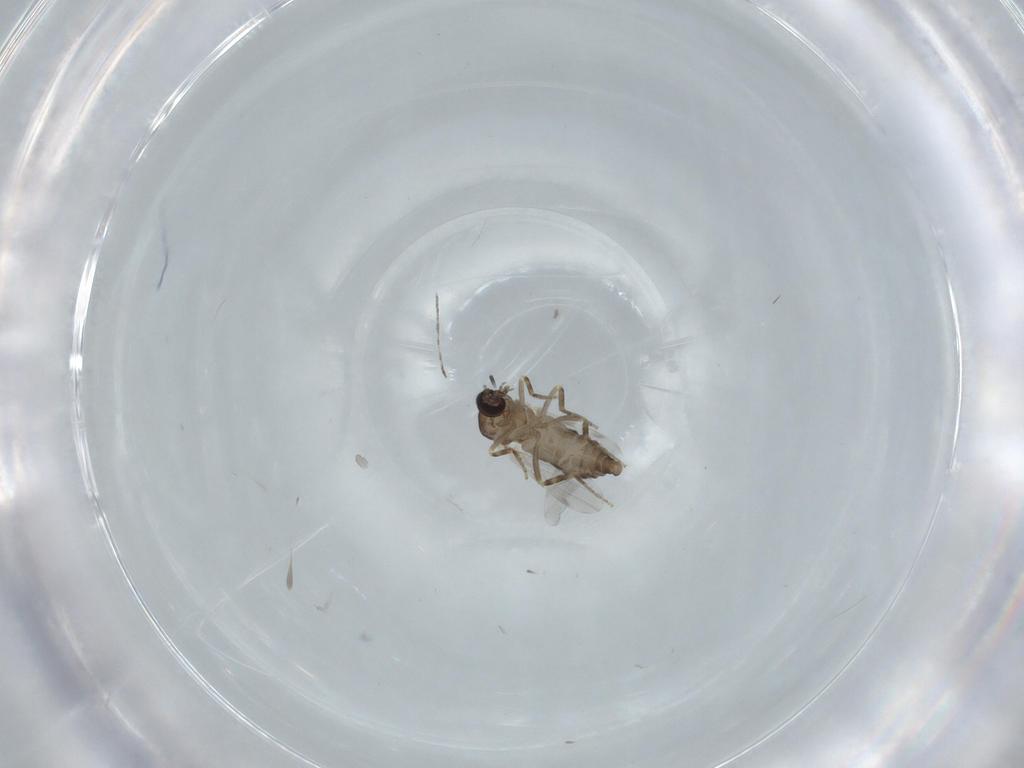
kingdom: Animalia
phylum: Arthropoda
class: Insecta
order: Diptera
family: Ceratopogonidae
